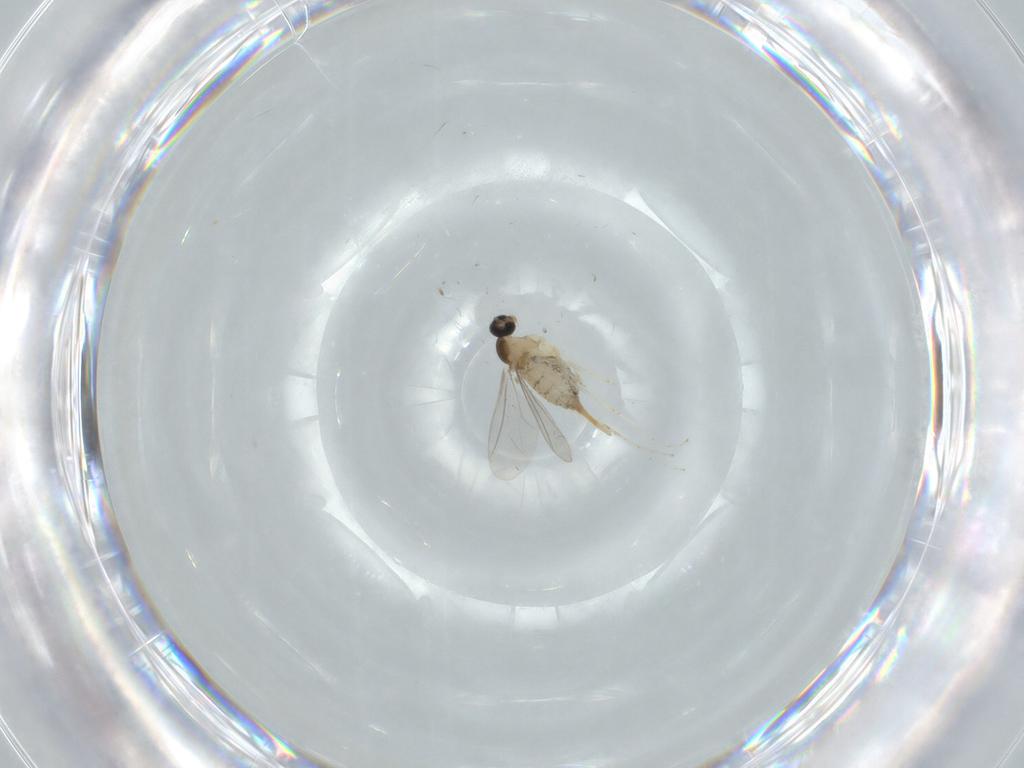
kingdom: Animalia
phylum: Arthropoda
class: Insecta
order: Diptera
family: Cecidomyiidae
